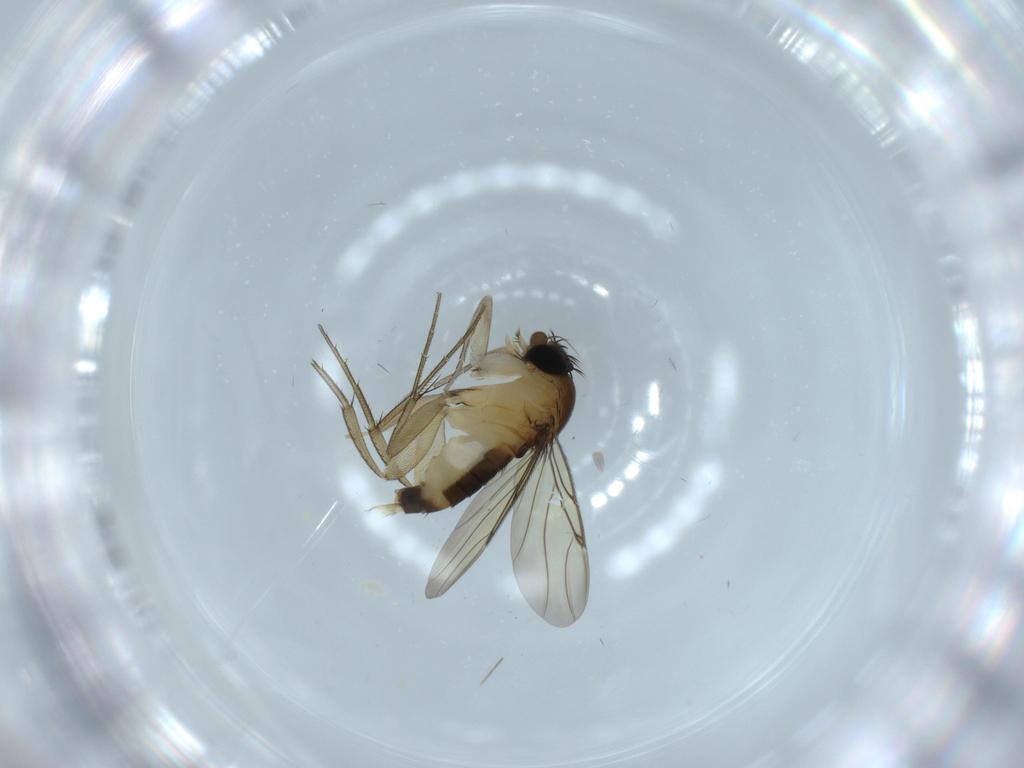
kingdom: Animalia
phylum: Arthropoda
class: Insecta
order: Diptera
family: Phoridae
